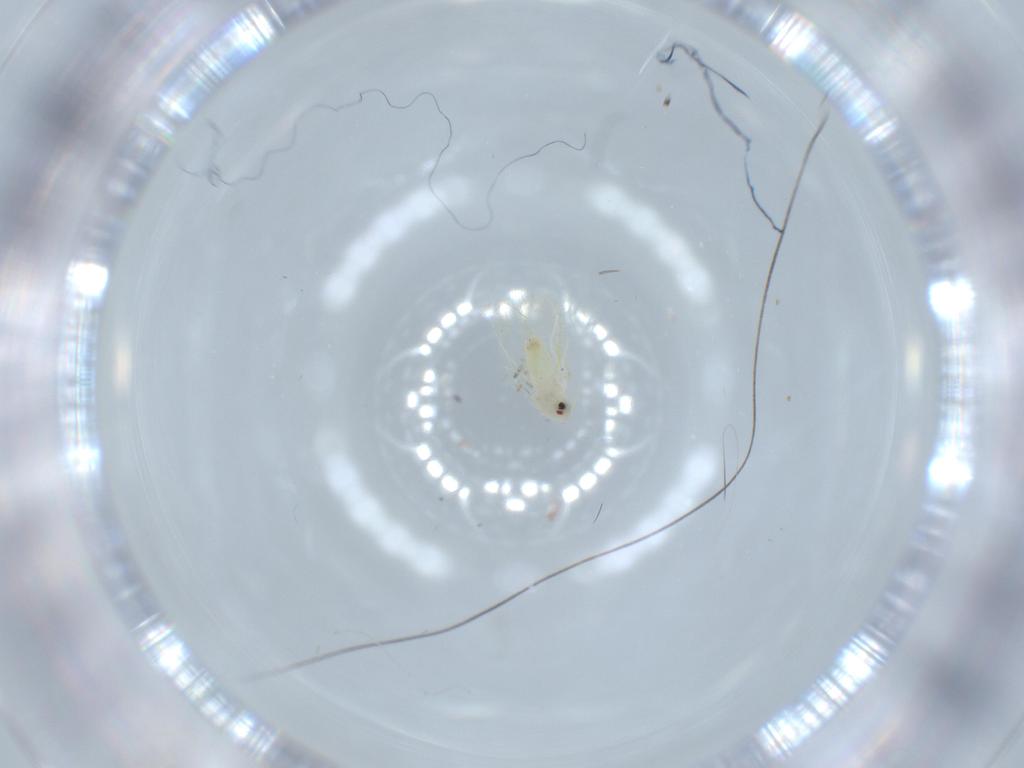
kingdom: Animalia
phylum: Arthropoda
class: Insecta
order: Hemiptera
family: Aleyrodidae
